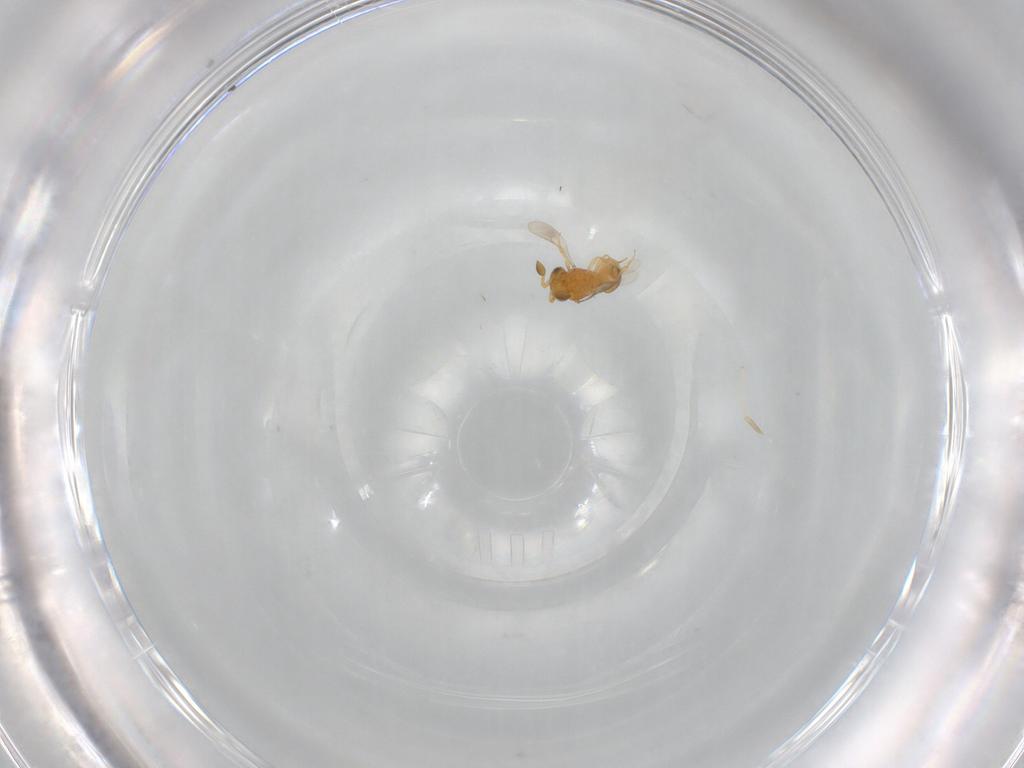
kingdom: Animalia
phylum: Arthropoda
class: Insecta
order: Hymenoptera
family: Scelionidae
